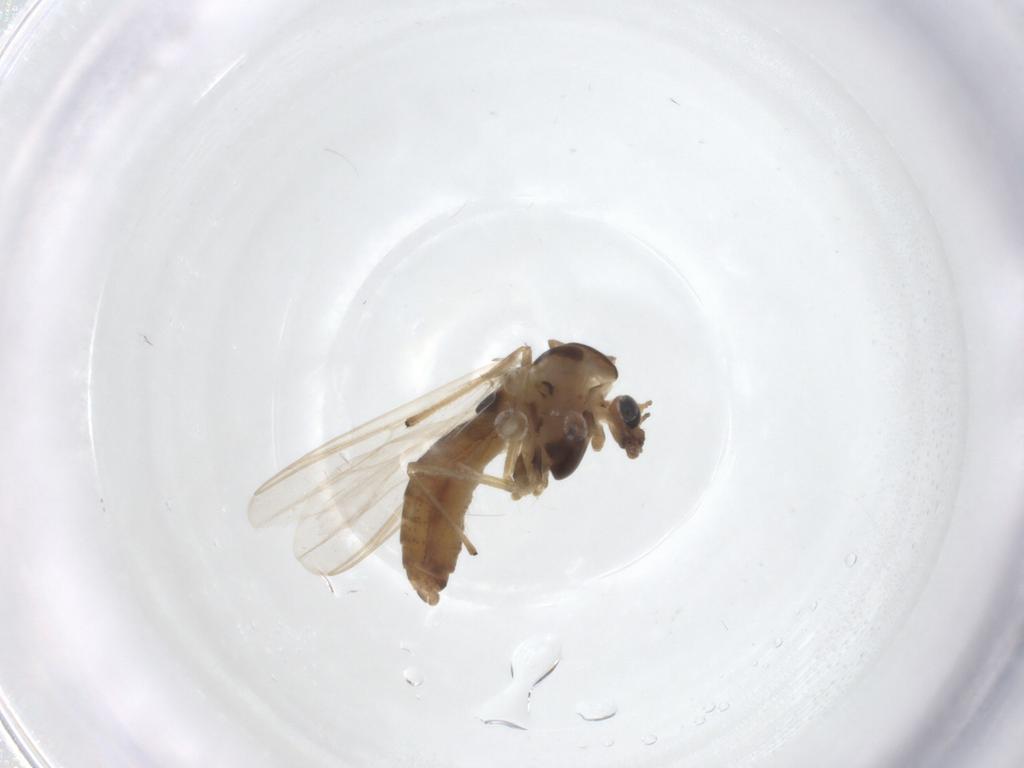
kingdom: Animalia
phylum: Arthropoda
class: Insecta
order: Diptera
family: Chironomidae
